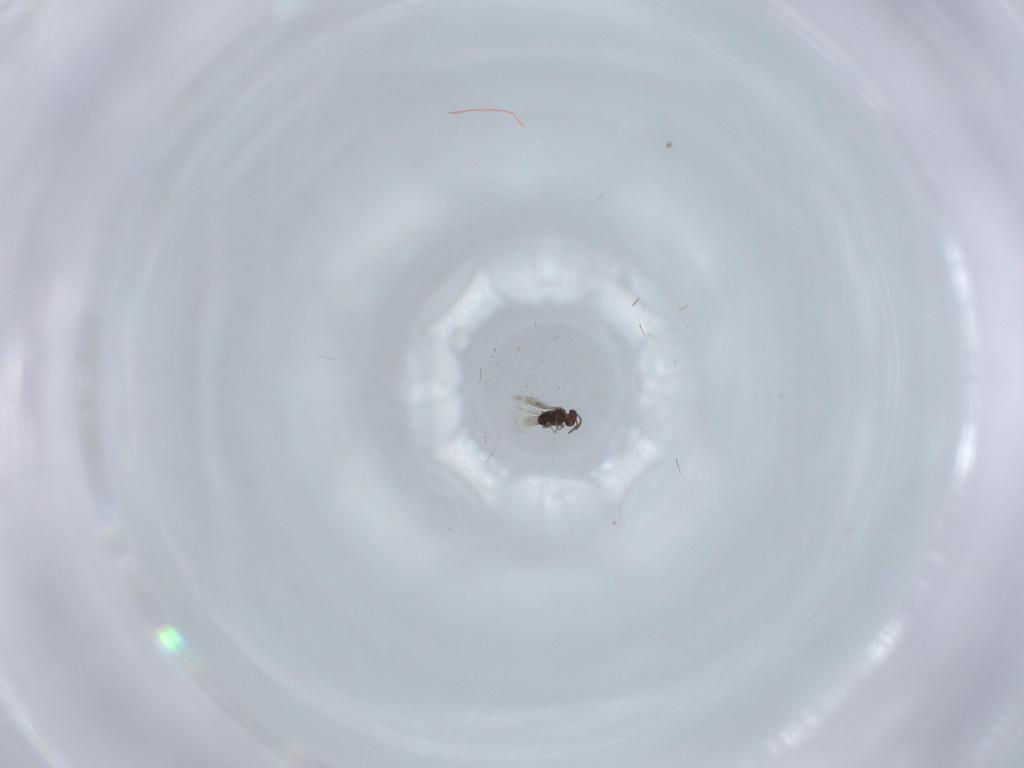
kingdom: Animalia
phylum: Arthropoda
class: Insecta
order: Hymenoptera
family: Signiphoridae
